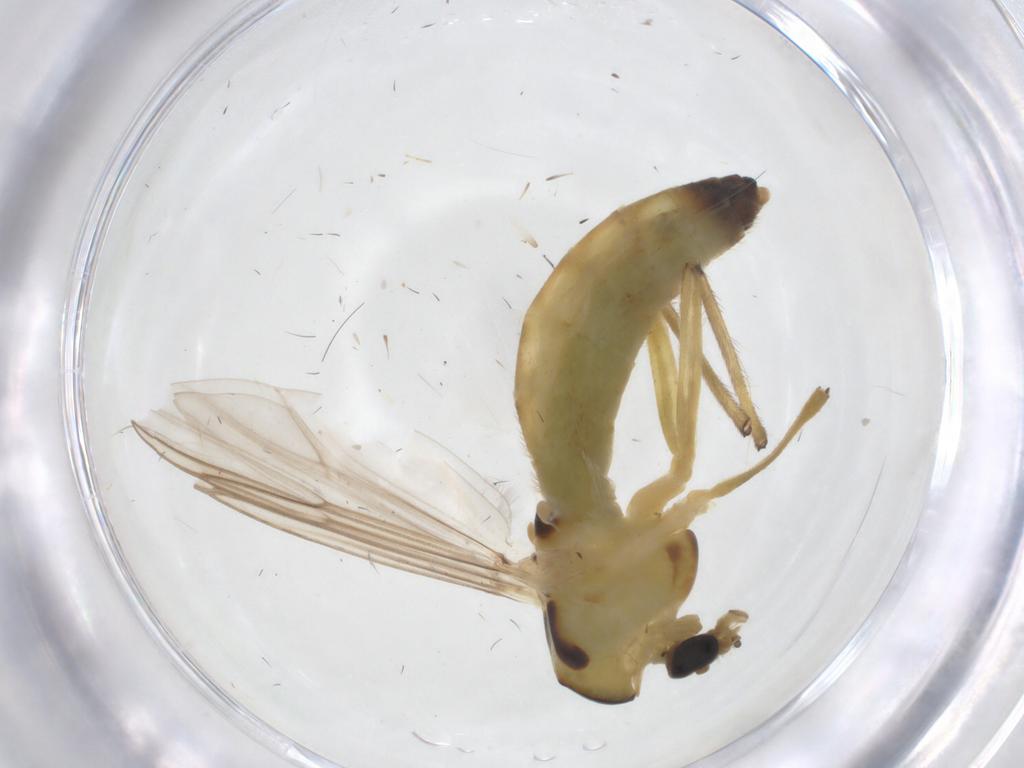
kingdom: Animalia
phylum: Arthropoda
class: Insecta
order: Diptera
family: Chironomidae
